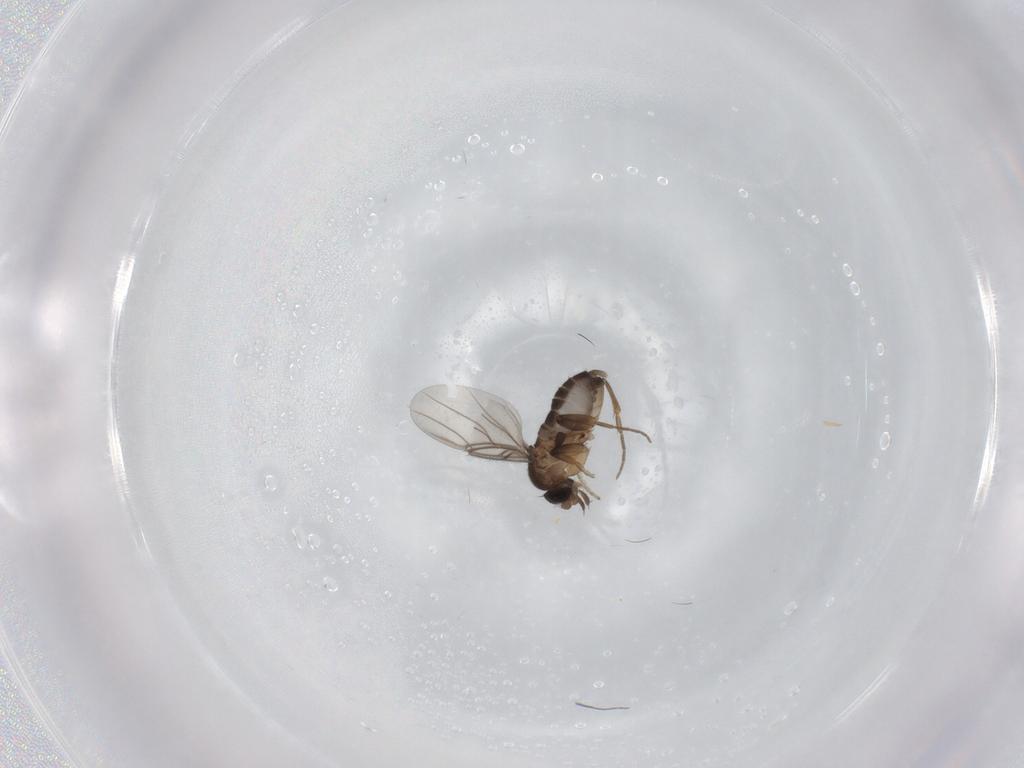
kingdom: Animalia
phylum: Arthropoda
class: Insecta
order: Diptera
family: Phoridae
